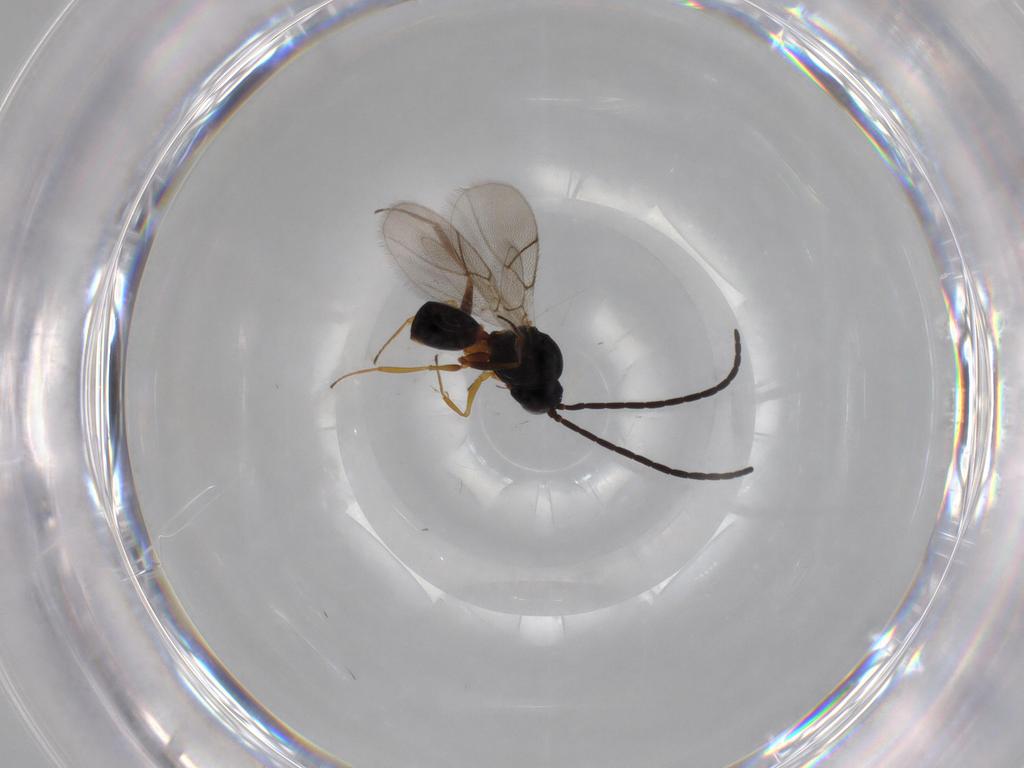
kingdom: Animalia
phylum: Arthropoda
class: Insecta
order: Hymenoptera
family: Figitidae
